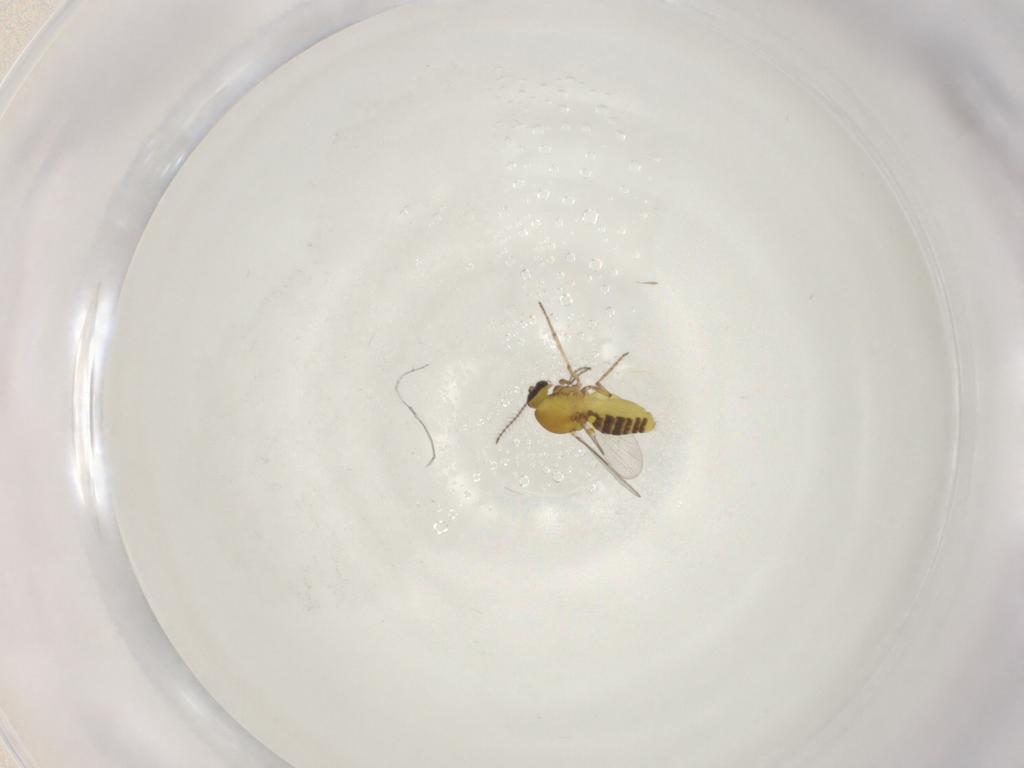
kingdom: Animalia
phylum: Arthropoda
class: Insecta
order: Diptera
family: Ceratopogonidae
